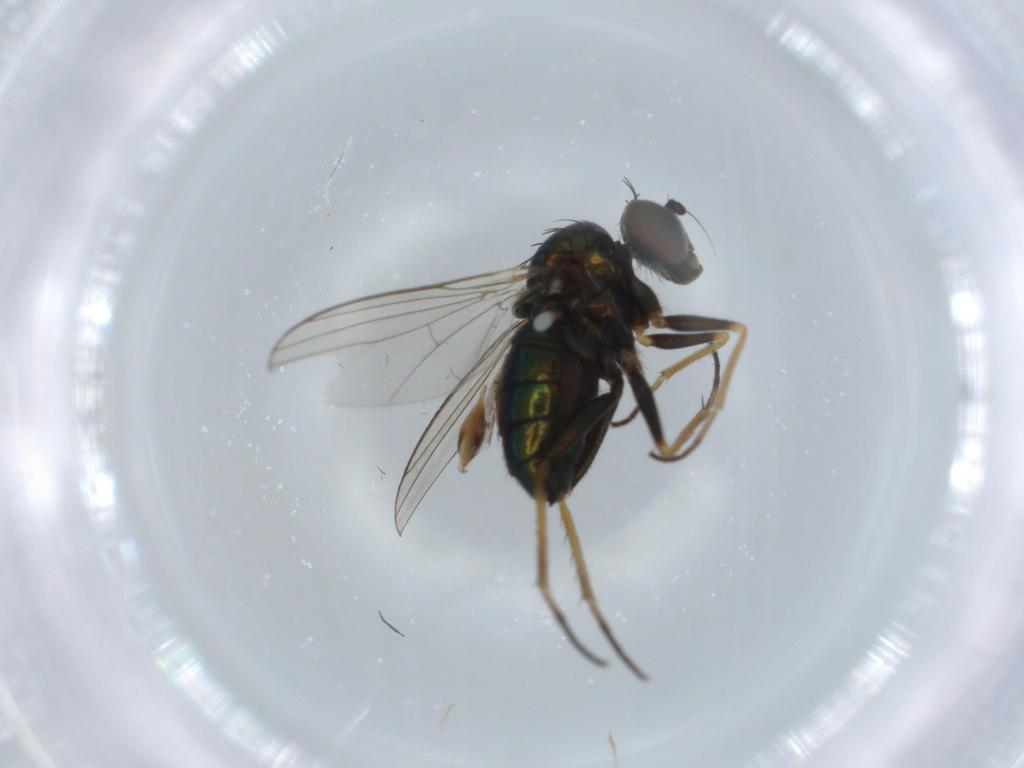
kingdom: Animalia
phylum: Arthropoda
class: Insecta
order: Diptera
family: Cecidomyiidae
